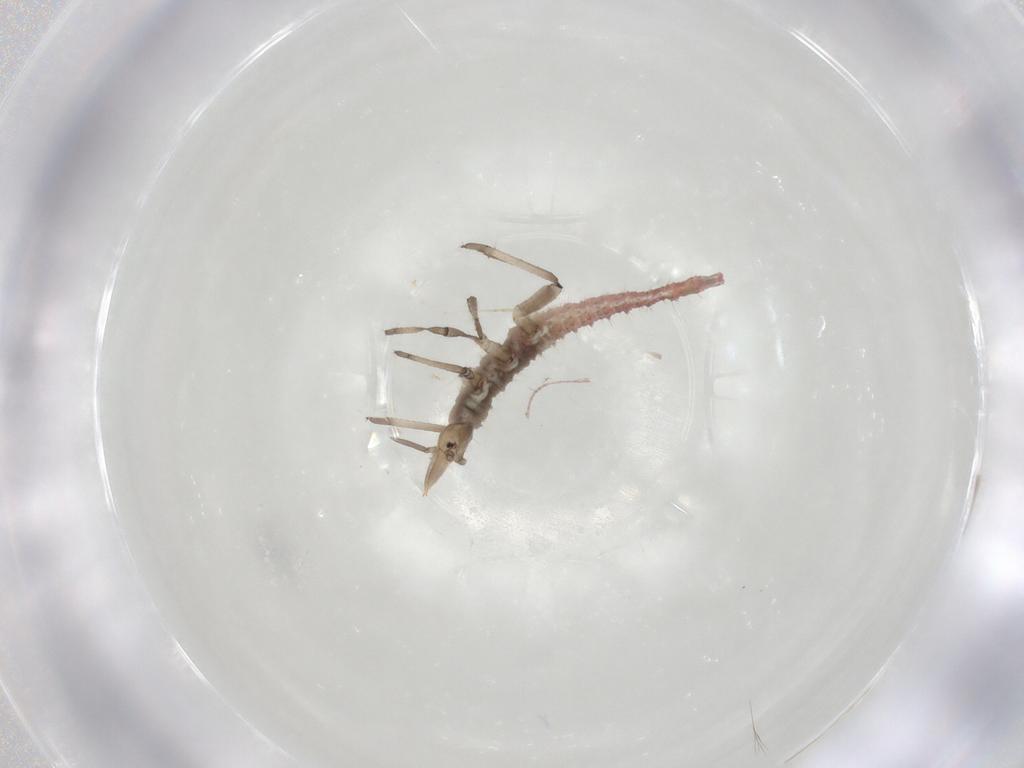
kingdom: Animalia
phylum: Arthropoda
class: Insecta
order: Neuroptera
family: Hemerobiidae
